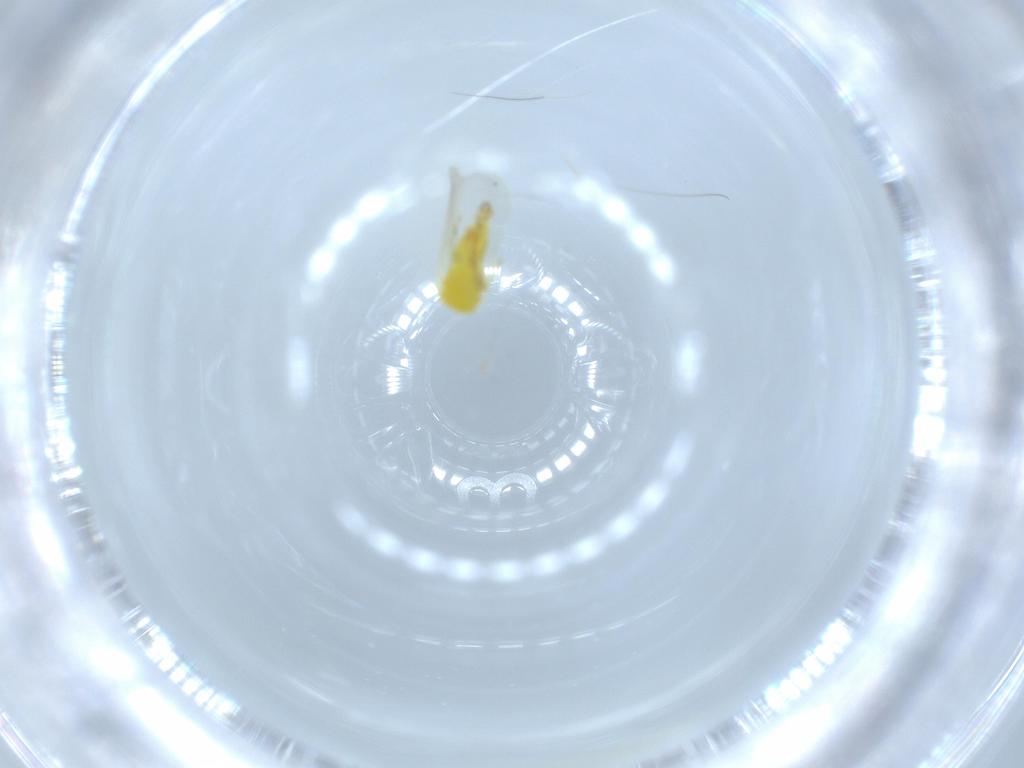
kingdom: Animalia
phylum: Arthropoda
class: Insecta
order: Hemiptera
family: Aleyrodidae
